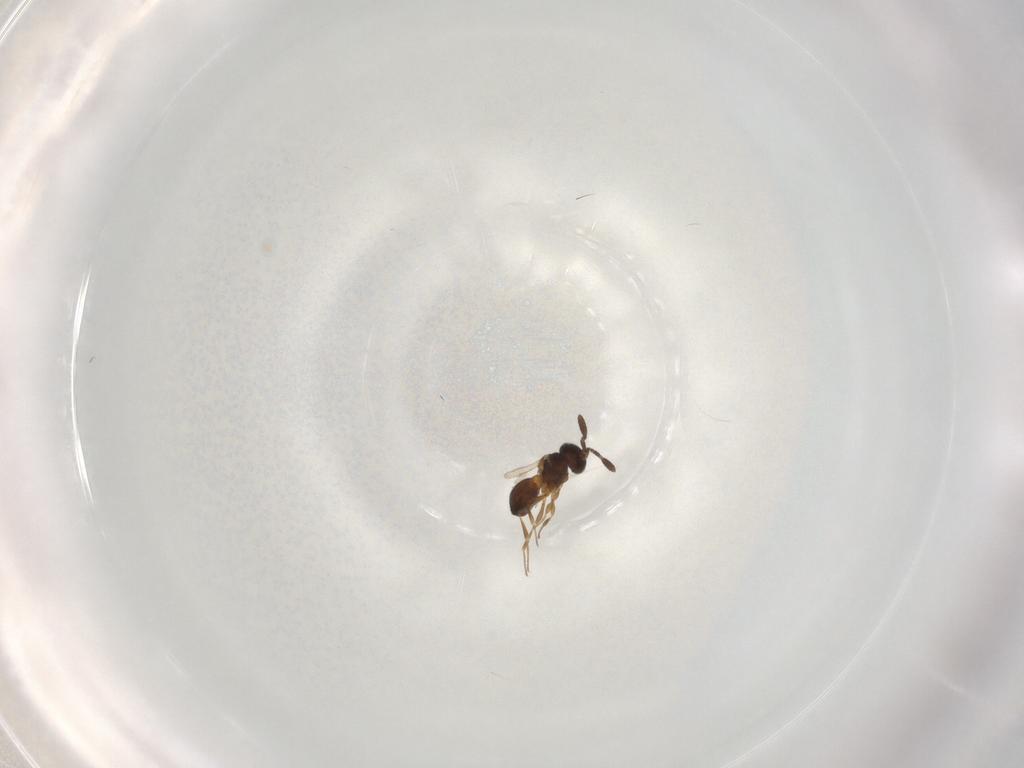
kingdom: Animalia
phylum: Arthropoda
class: Insecta
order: Hymenoptera
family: Scelionidae
